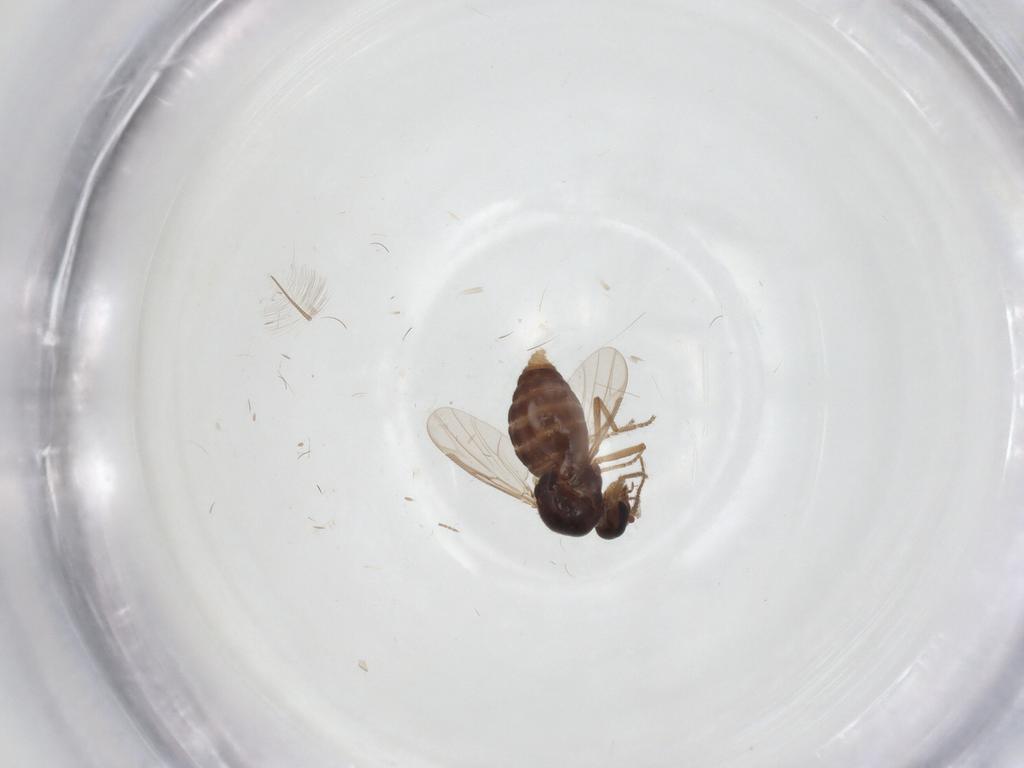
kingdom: Animalia
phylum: Arthropoda
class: Insecta
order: Diptera
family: Chironomidae
